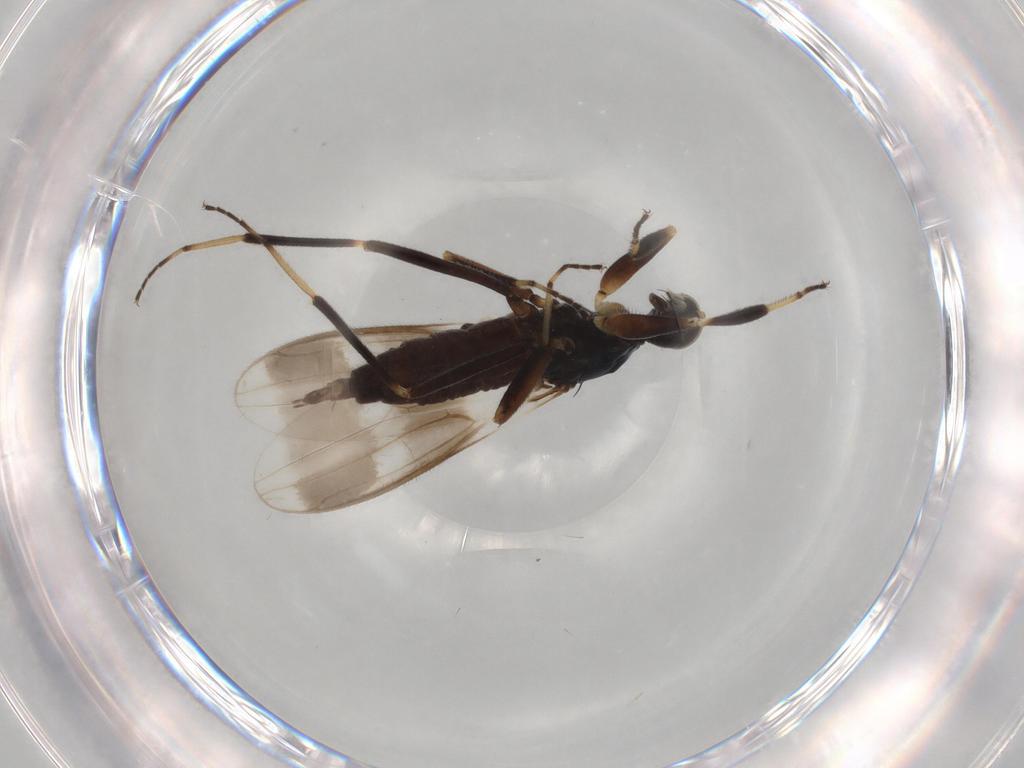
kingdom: Animalia
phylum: Arthropoda
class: Insecta
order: Diptera
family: Hybotidae
